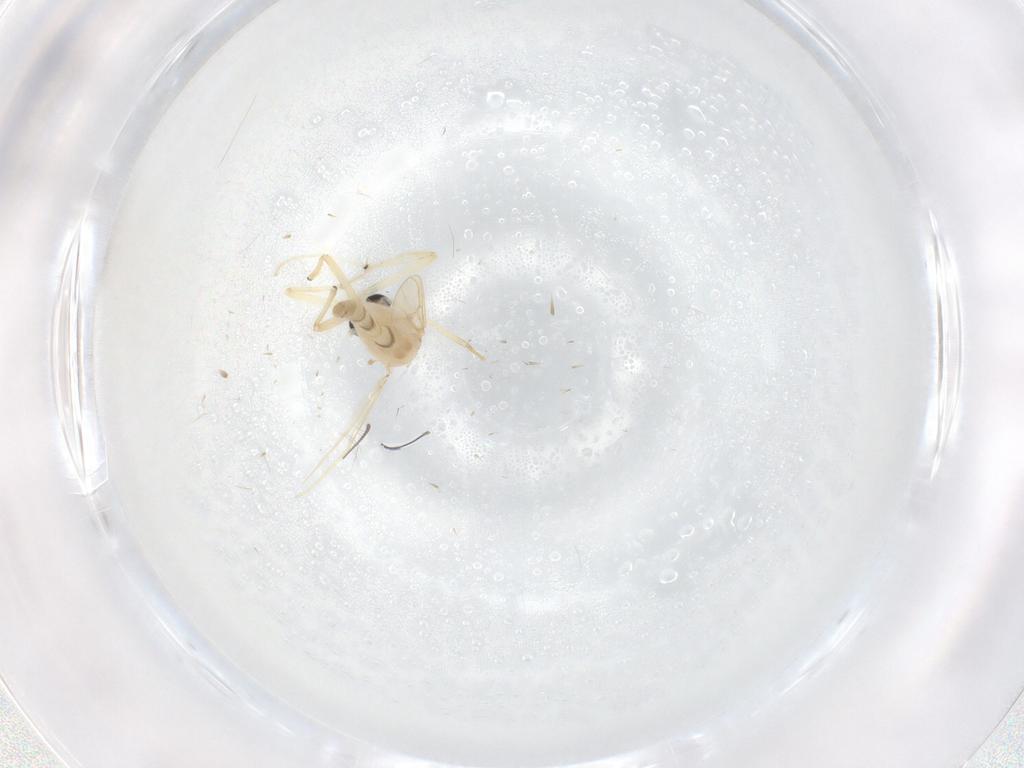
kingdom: Animalia
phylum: Arthropoda
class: Insecta
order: Diptera
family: Chironomidae
